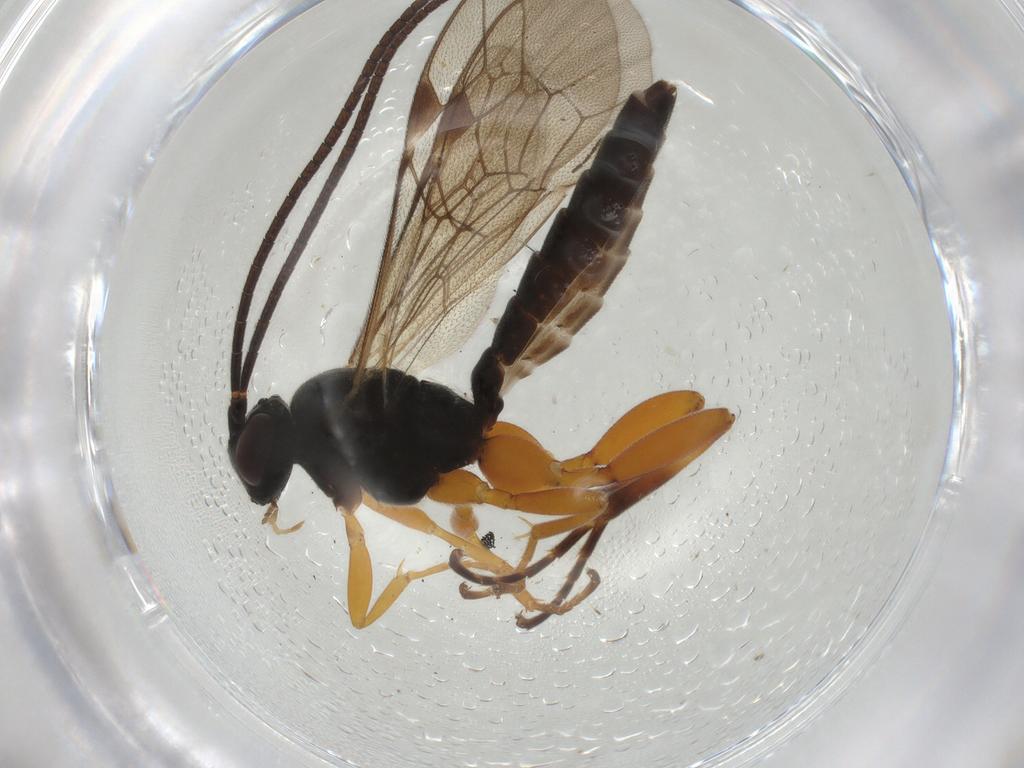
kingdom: Animalia
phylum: Arthropoda
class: Insecta
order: Hymenoptera
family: Ichneumonidae
